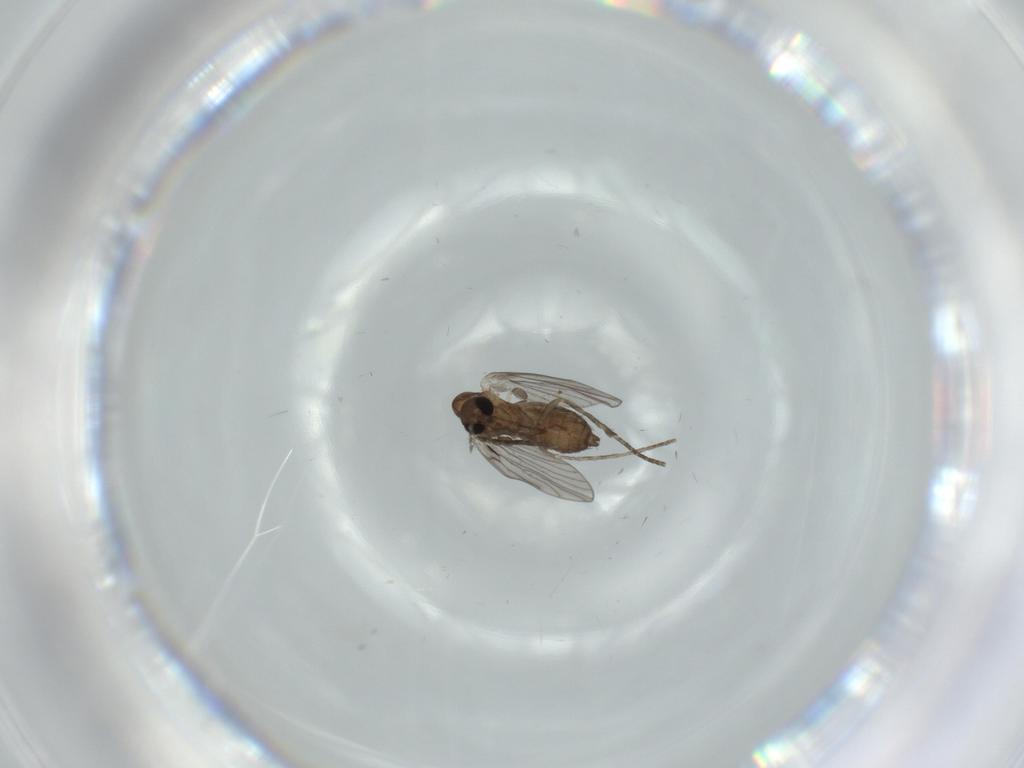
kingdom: Animalia
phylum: Arthropoda
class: Insecta
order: Diptera
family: Psychodidae
